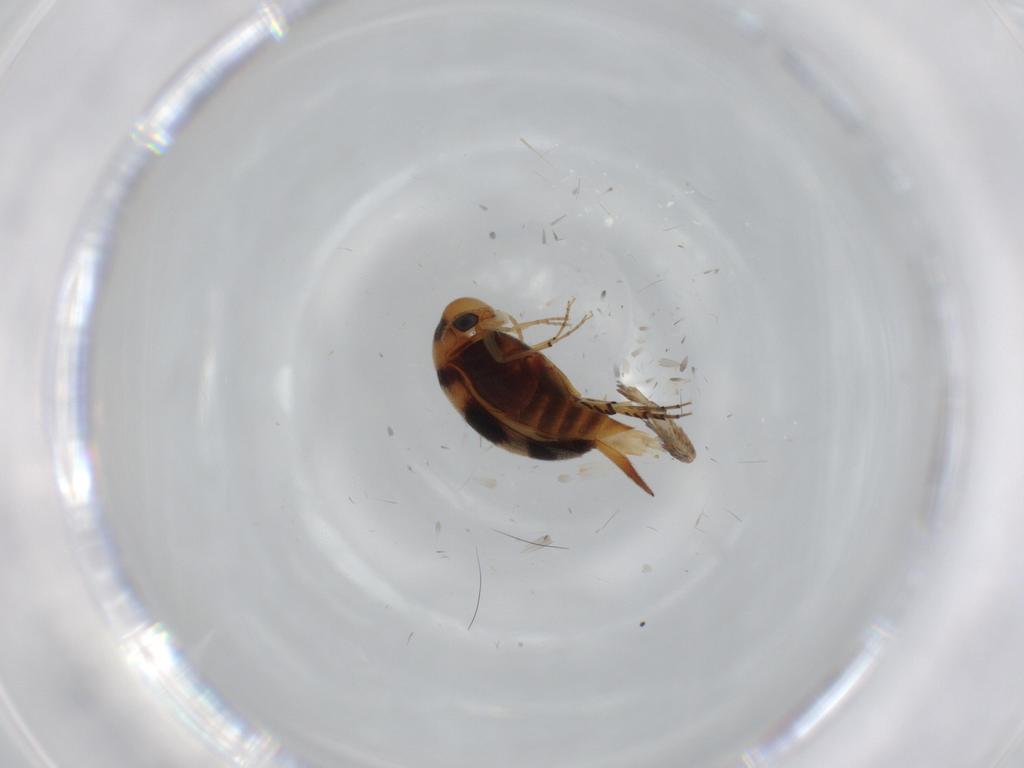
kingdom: Animalia
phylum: Arthropoda
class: Insecta
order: Coleoptera
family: Mordellidae
